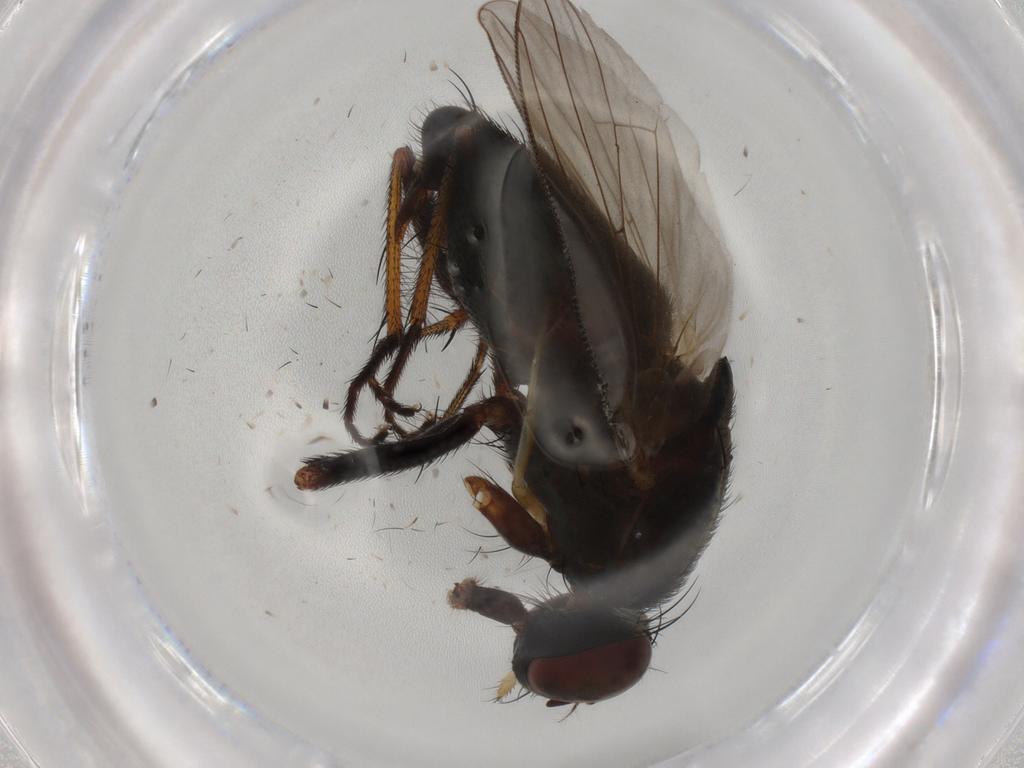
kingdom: Animalia
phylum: Arthropoda
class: Insecta
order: Diptera
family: Muscidae
